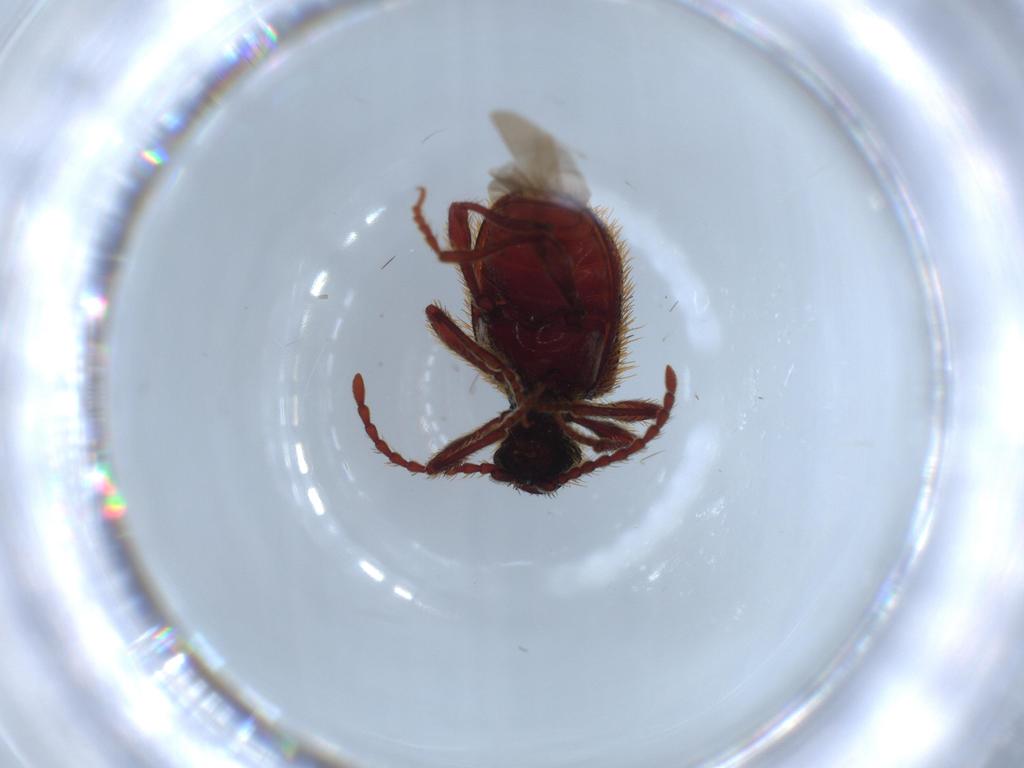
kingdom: Animalia
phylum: Arthropoda
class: Insecta
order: Coleoptera
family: Ptinidae
